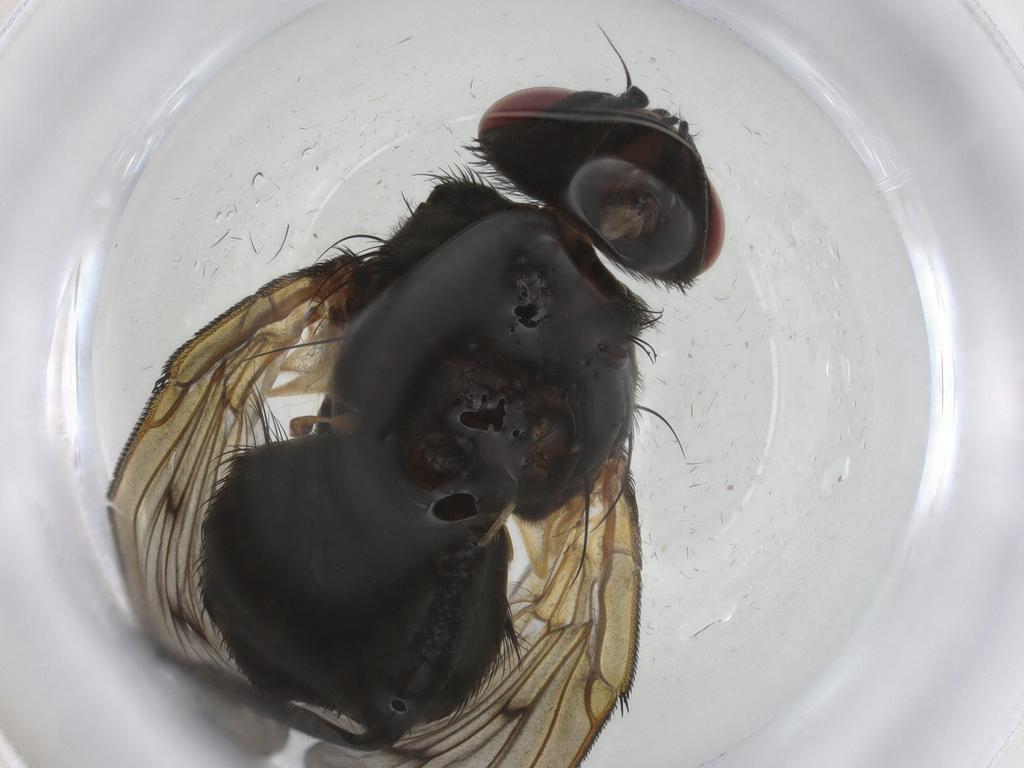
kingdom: Animalia
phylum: Arthropoda
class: Insecta
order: Diptera
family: Muscidae
